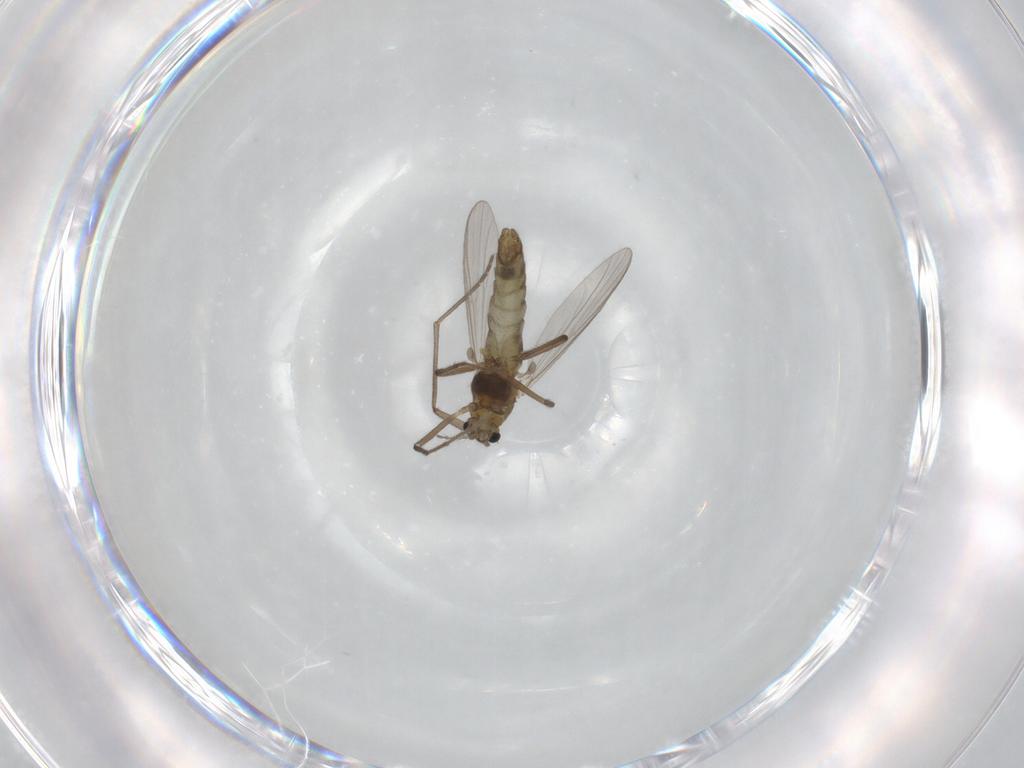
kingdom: Animalia
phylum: Arthropoda
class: Insecta
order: Diptera
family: Chironomidae
